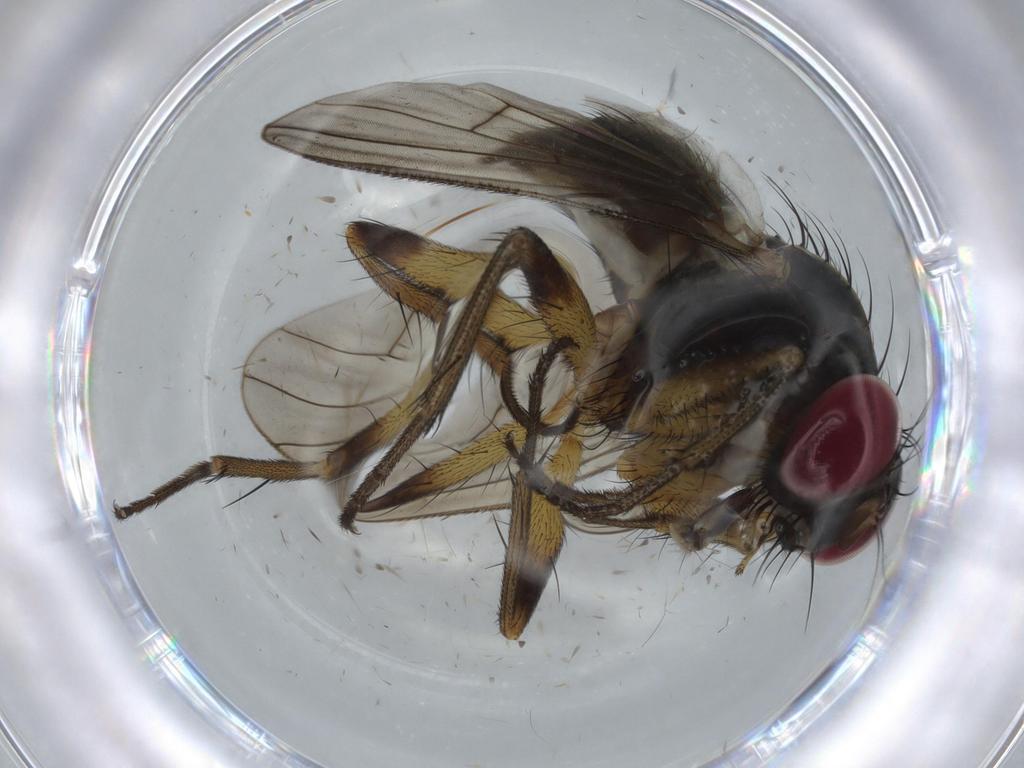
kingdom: Animalia
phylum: Arthropoda
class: Insecta
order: Diptera
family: Muscidae
